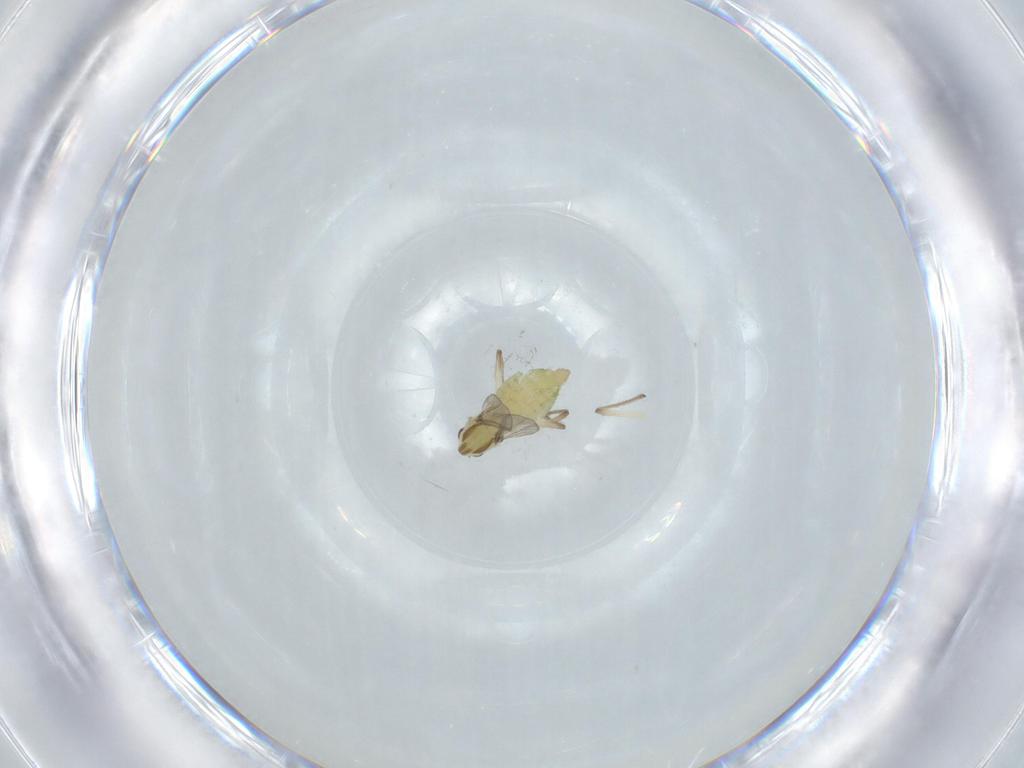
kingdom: Animalia
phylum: Arthropoda
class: Insecta
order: Diptera
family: Chironomidae
